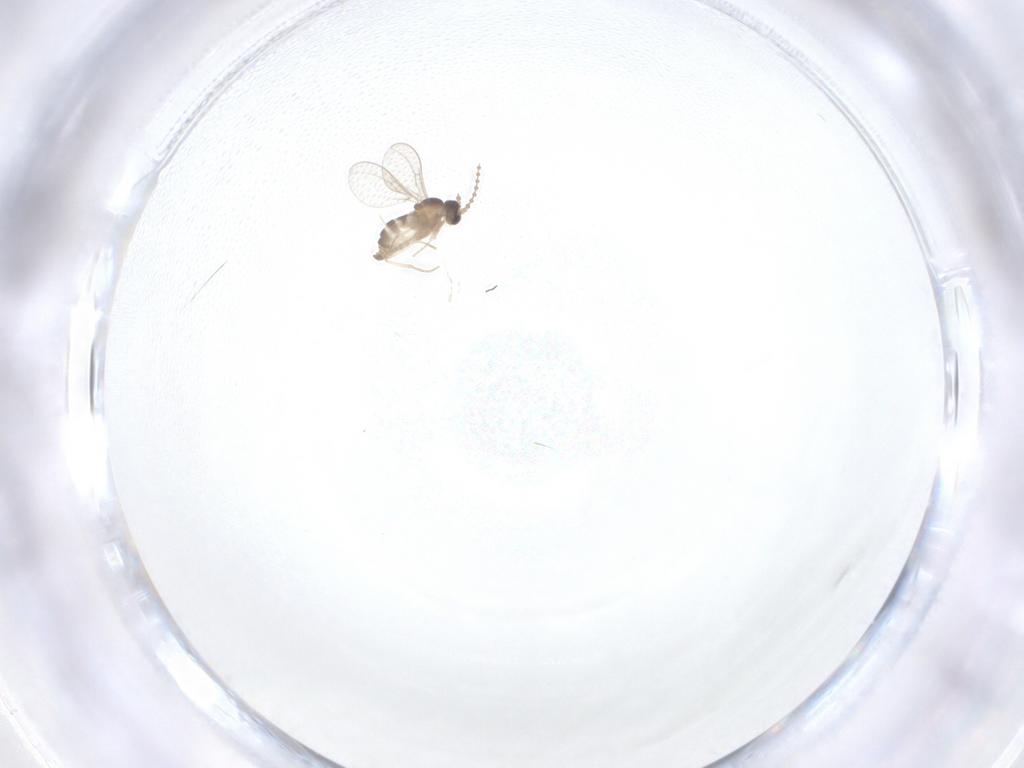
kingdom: Animalia
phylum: Arthropoda
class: Insecta
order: Diptera
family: Cecidomyiidae
